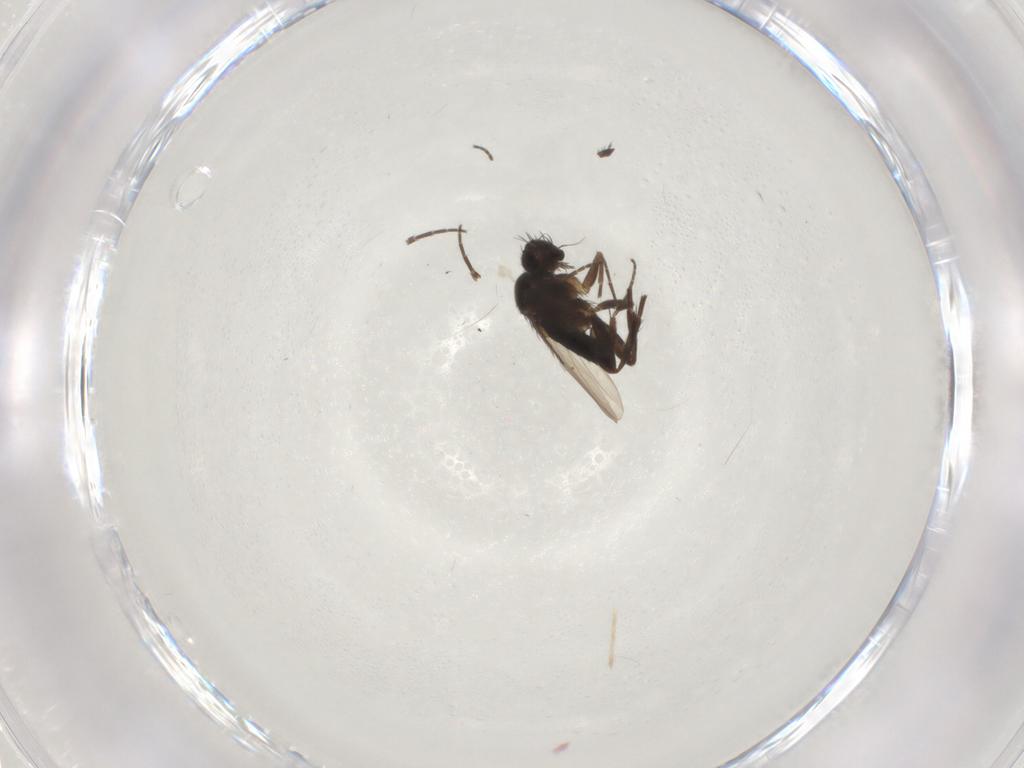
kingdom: Animalia
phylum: Arthropoda
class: Insecta
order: Diptera
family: Phoridae
